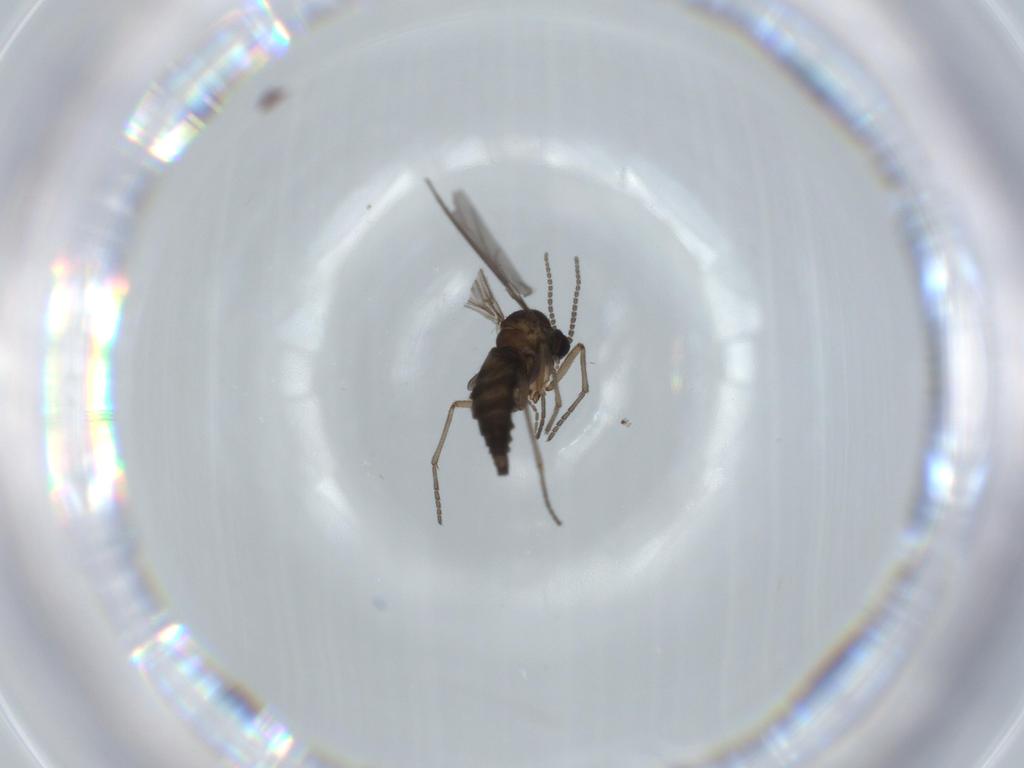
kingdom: Animalia
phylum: Arthropoda
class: Insecta
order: Diptera
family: Sciaridae
